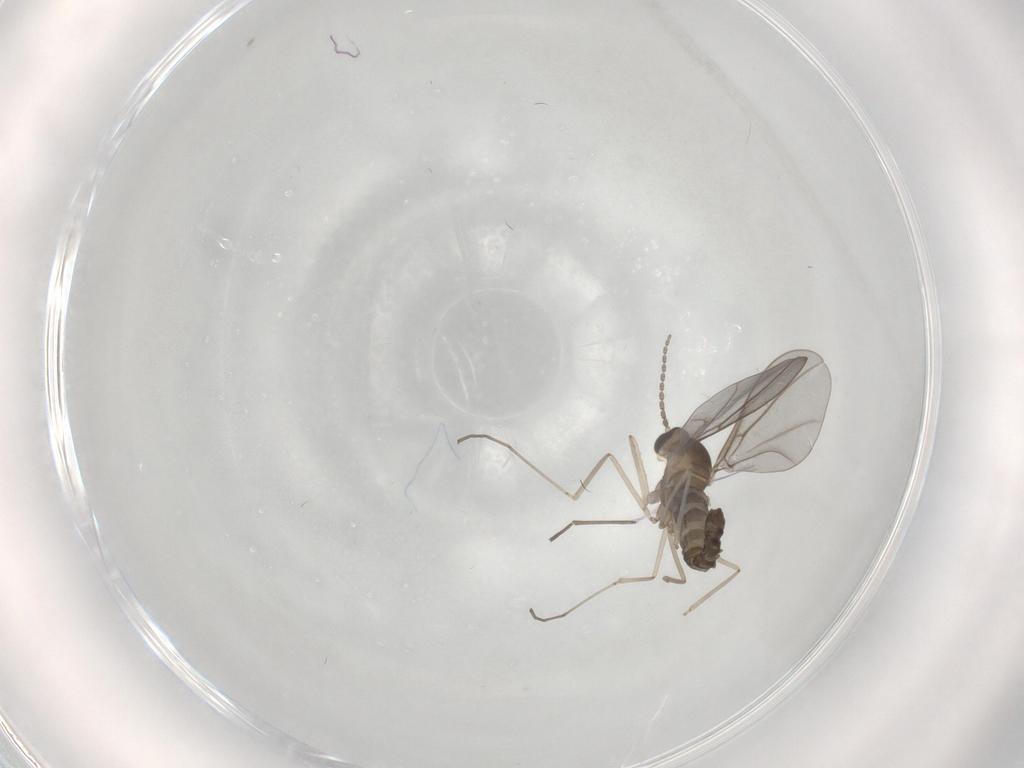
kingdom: Animalia
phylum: Arthropoda
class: Insecta
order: Diptera
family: Cecidomyiidae
